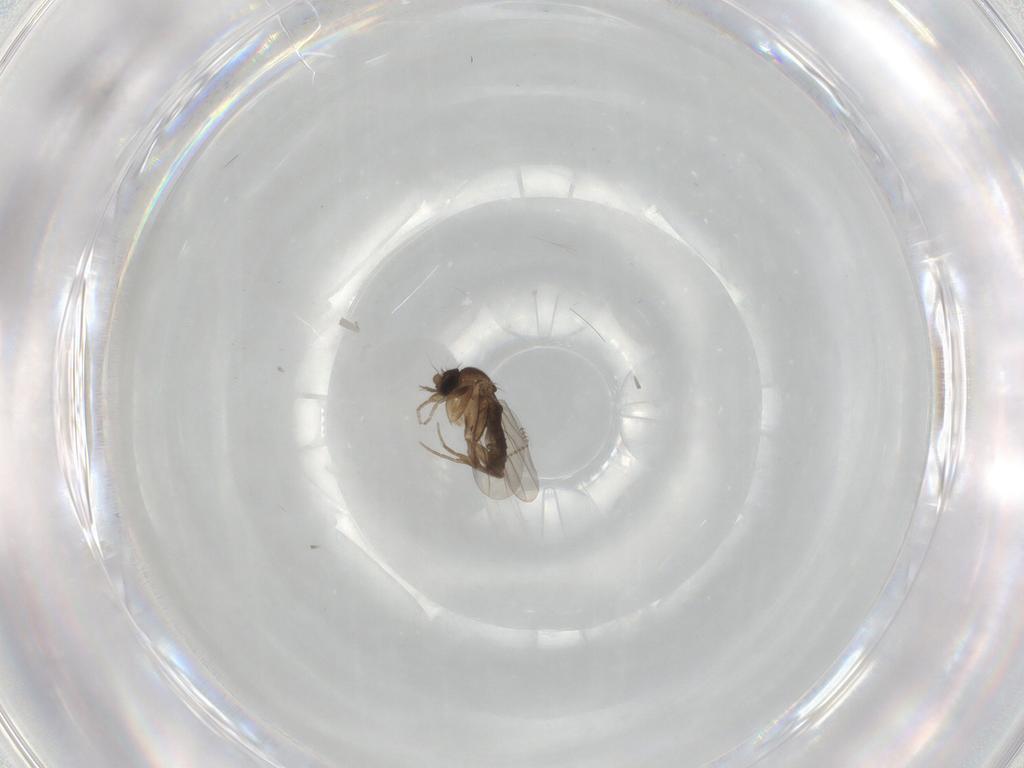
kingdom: Animalia
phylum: Arthropoda
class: Insecta
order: Diptera
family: Phoridae
